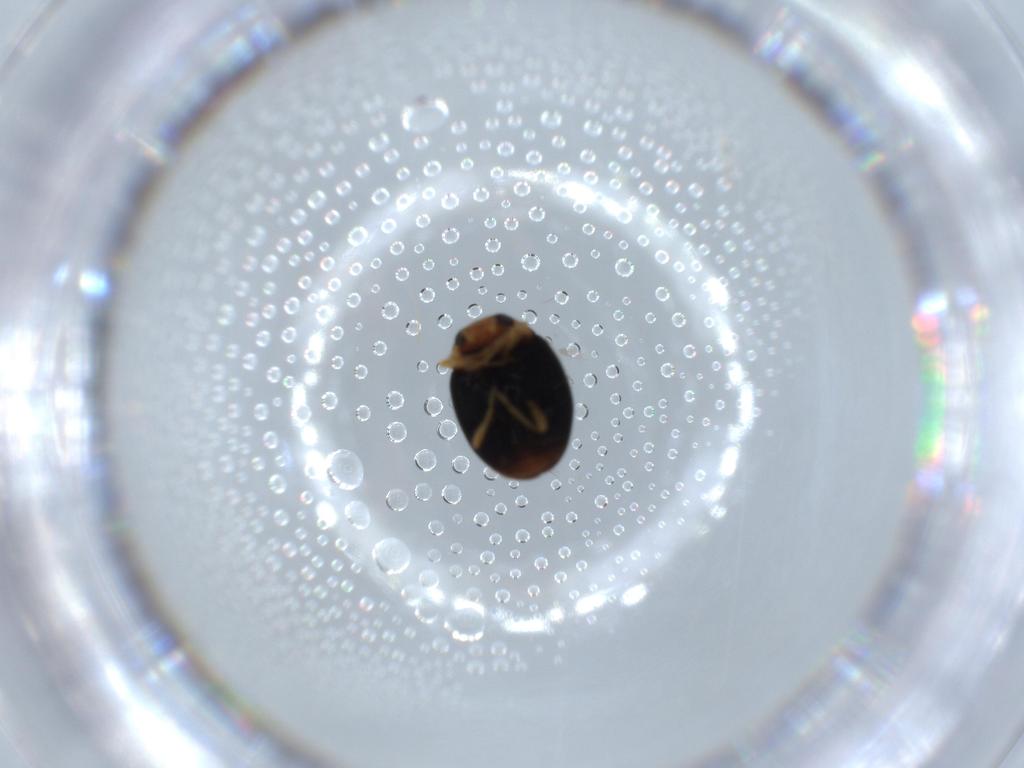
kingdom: Animalia
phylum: Arthropoda
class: Insecta
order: Coleoptera
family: Coccinellidae
